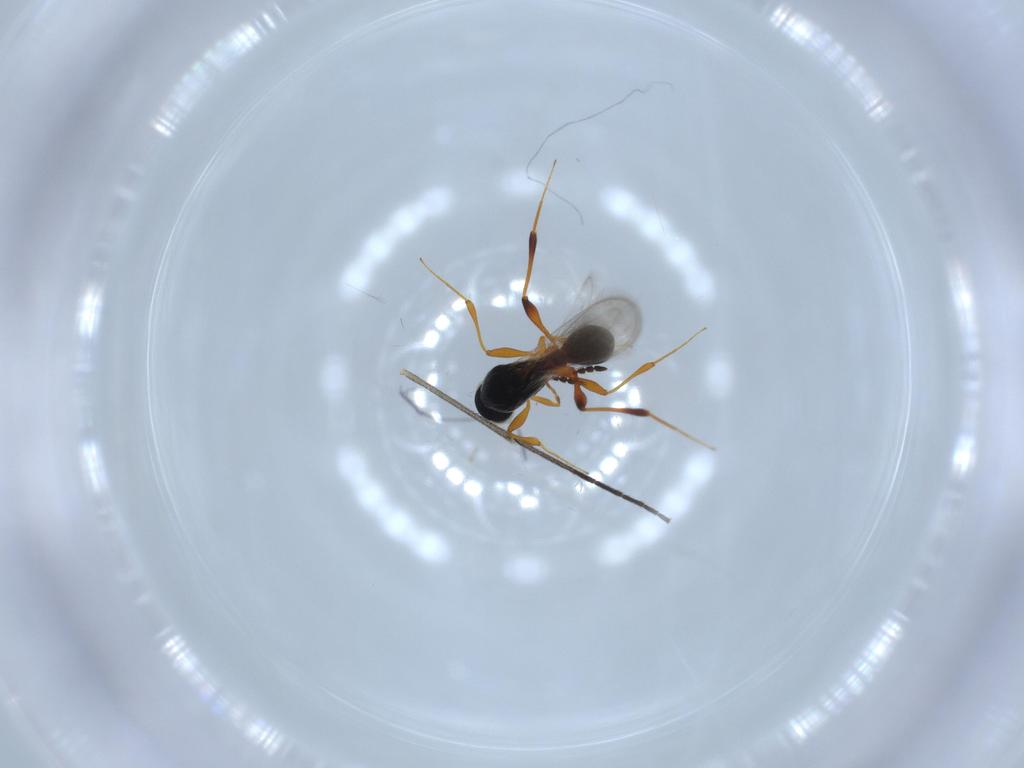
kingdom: Animalia
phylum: Arthropoda
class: Insecta
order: Hymenoptera
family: Platygastridae
